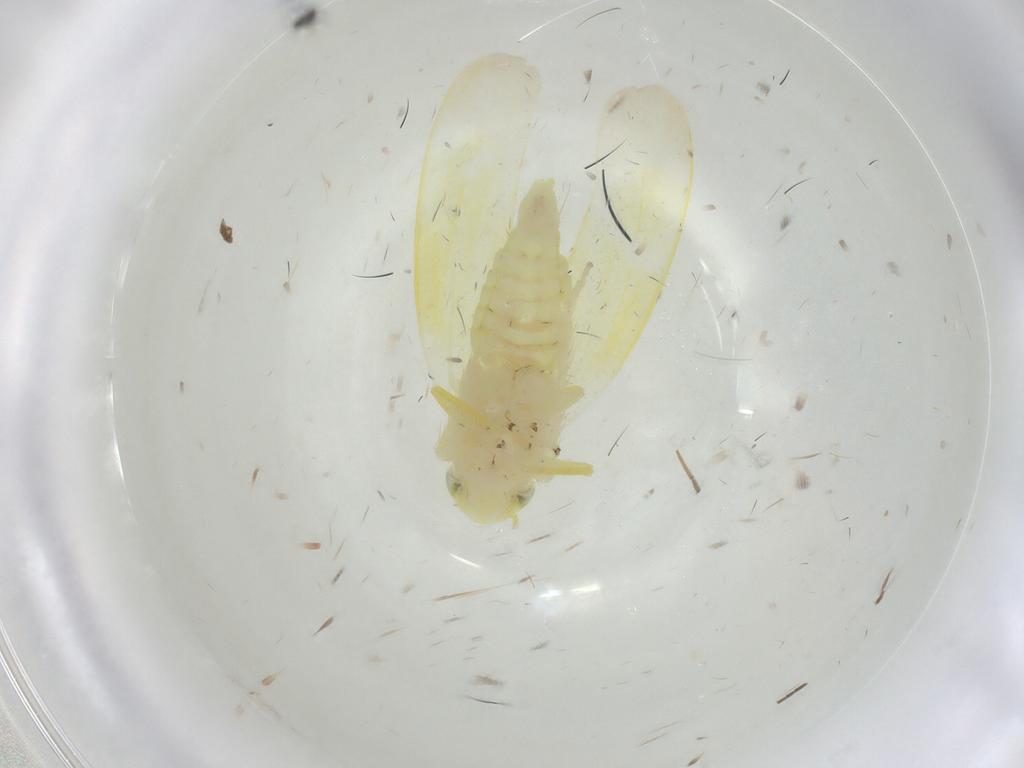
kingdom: Animalia
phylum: Arthropoda
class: Insecta
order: Hemiptera
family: Cicadellidae
